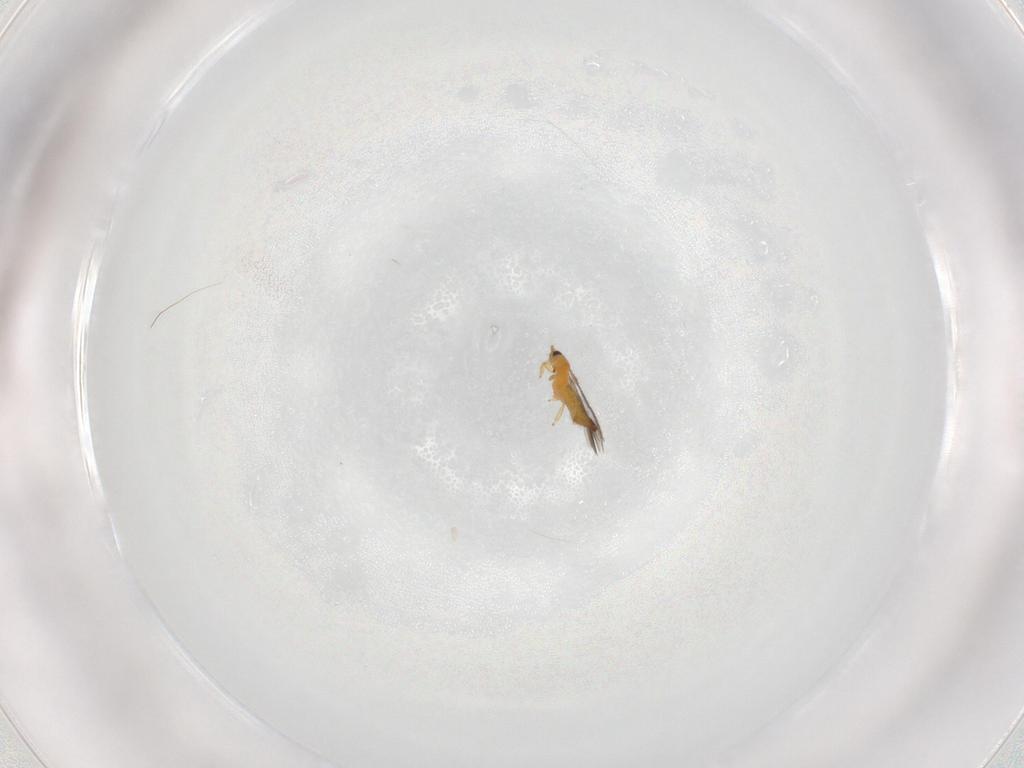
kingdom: Animalia
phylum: Arthropoda
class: Insecta
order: Thysanoptera
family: Thripidae
